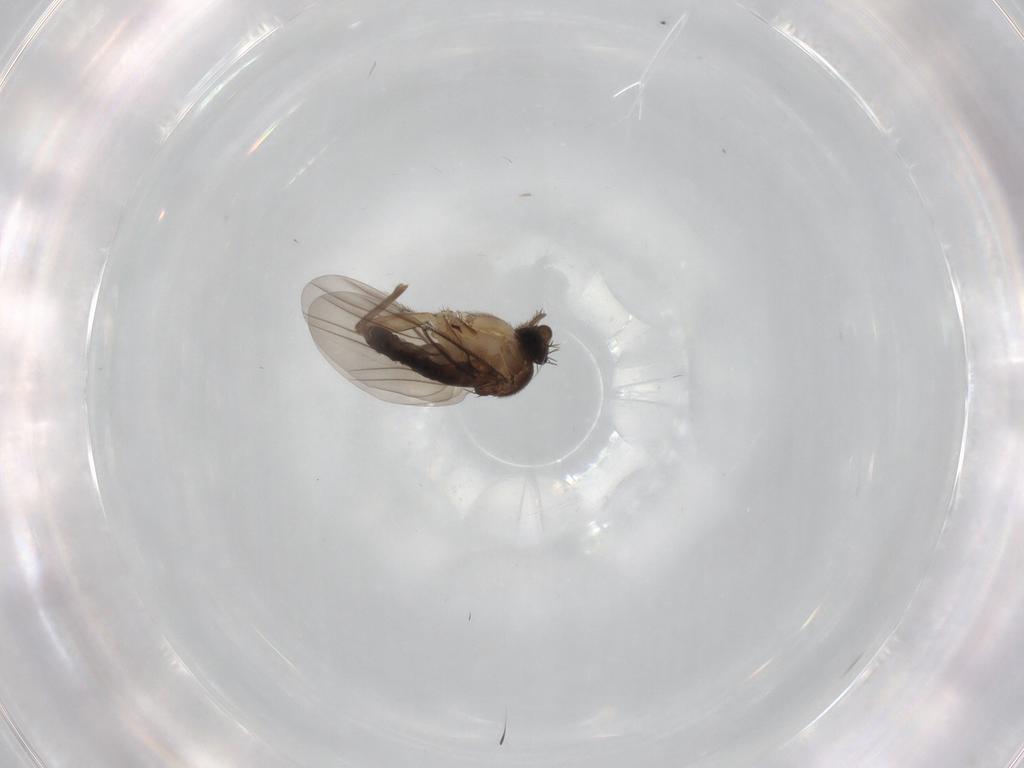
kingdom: Animalia
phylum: Arthropoda
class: Insecta
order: Diptera
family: Phoridae
